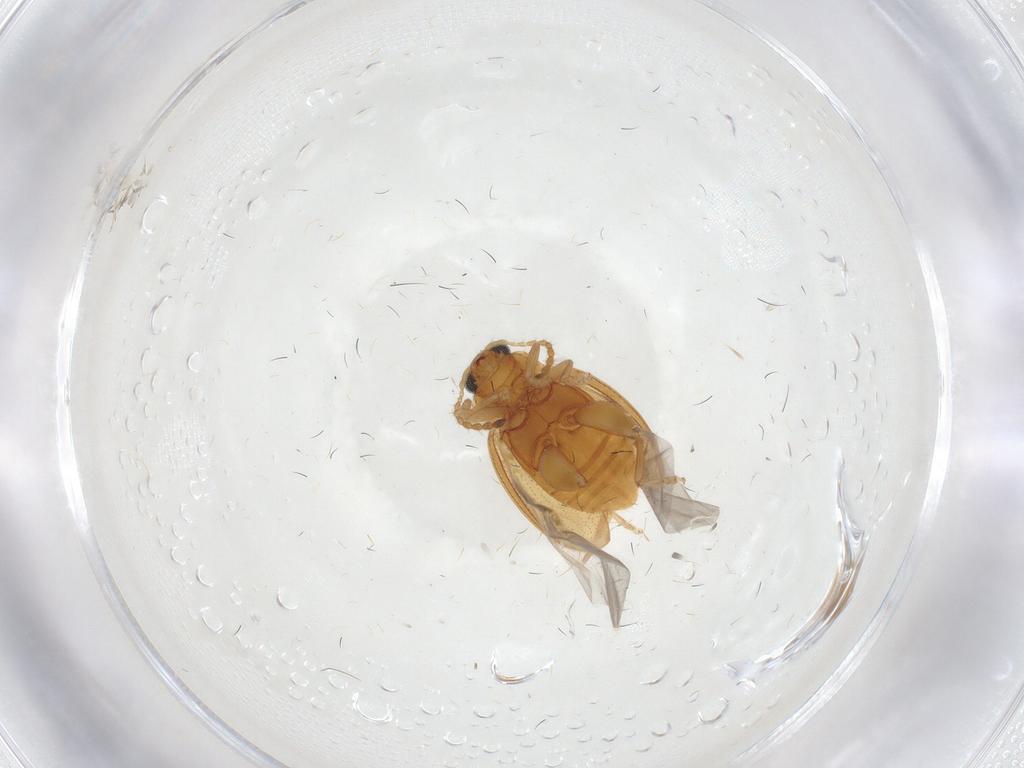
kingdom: Animalia
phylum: Arthropoda
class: Insecta
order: Coleoptera
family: Chrysomelidae
